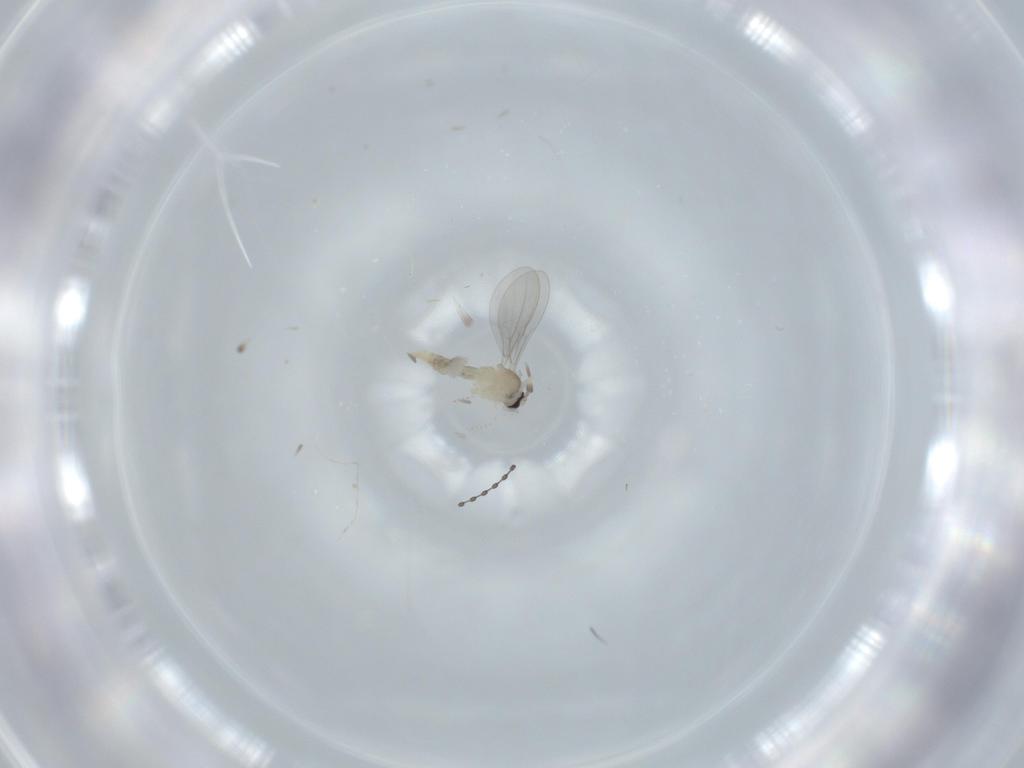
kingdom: Animalia
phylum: Arthropoda
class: Insecta
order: Diptera
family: Cecidomyiidae
